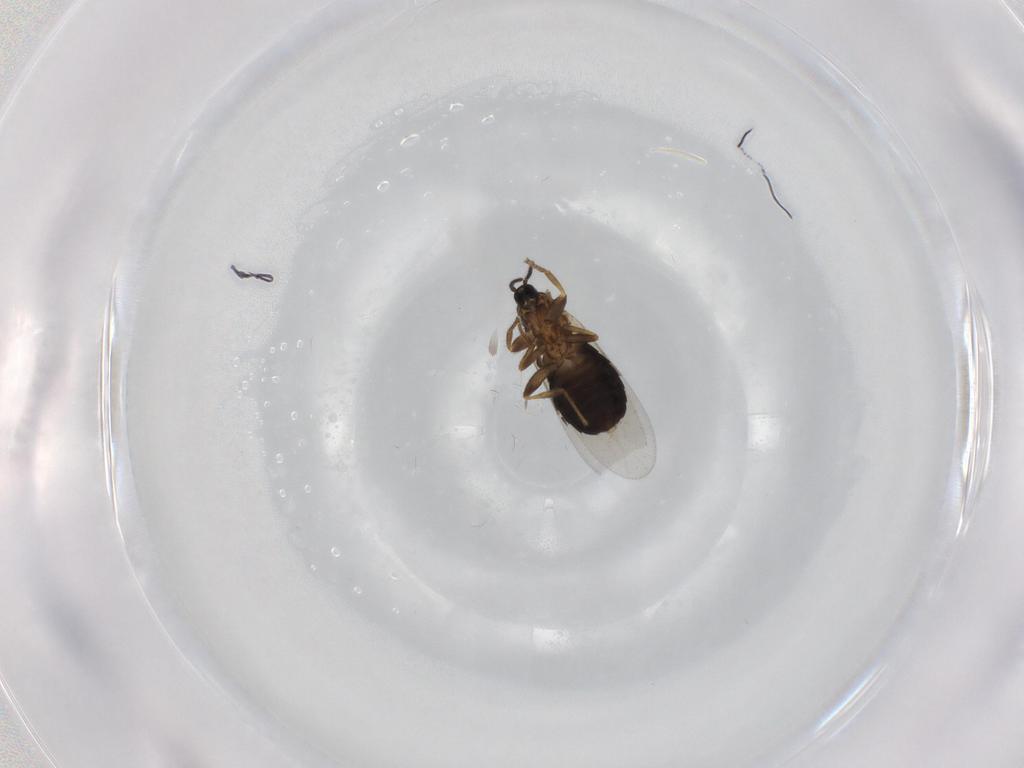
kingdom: Animalia
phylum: Arthropoda
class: Insecta
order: Diptera
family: Scatopsidae
